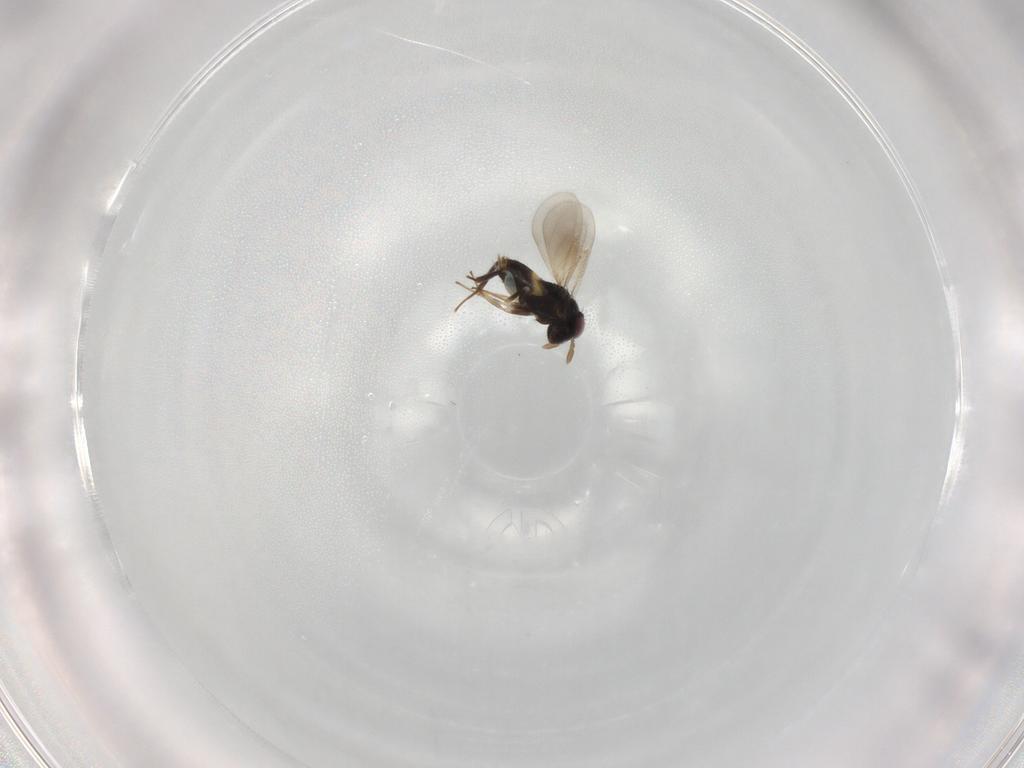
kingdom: Animalia
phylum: Arthropoda
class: Insecta
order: Hymenoptera
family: Aphelinidae
